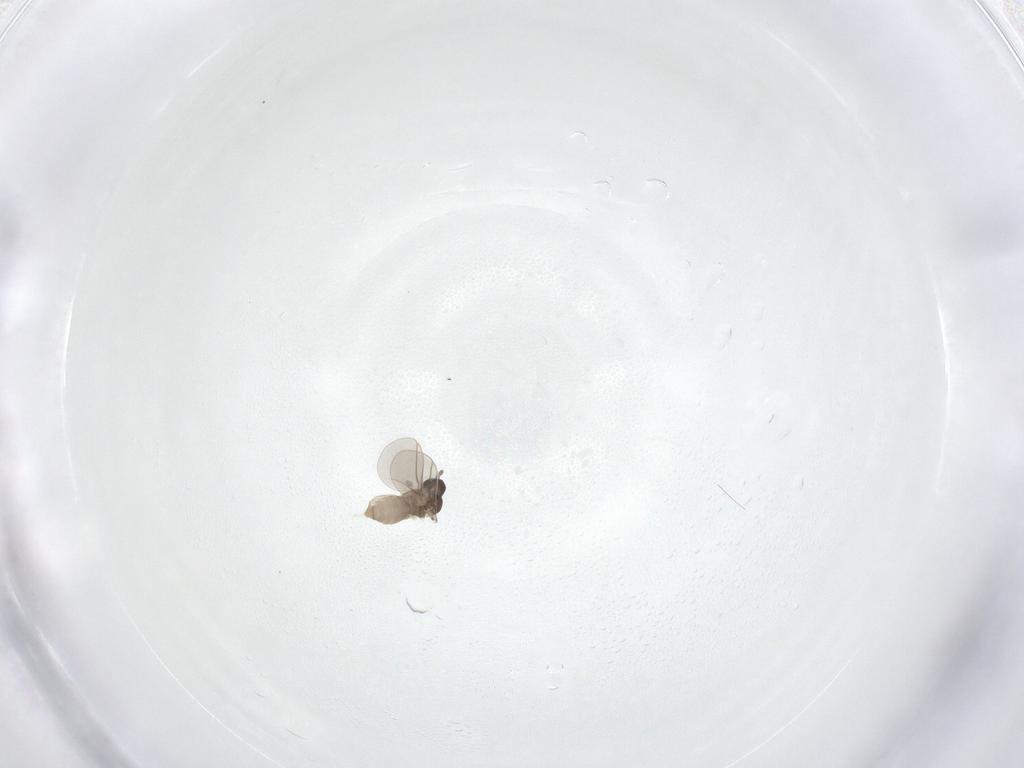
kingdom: Animalia
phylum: Arthropoda
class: Insecta
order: Diptera
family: Cecidomyiidae
